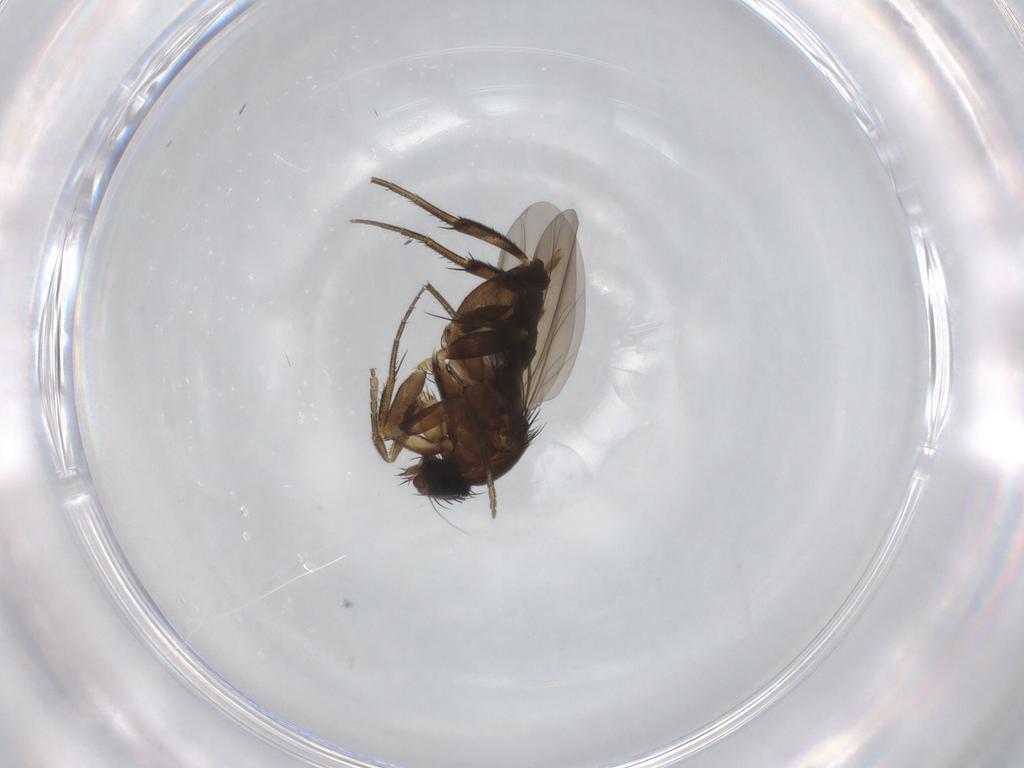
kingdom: Animalia
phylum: Arthropoda
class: Insecta
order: Diptera
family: Phoridae
